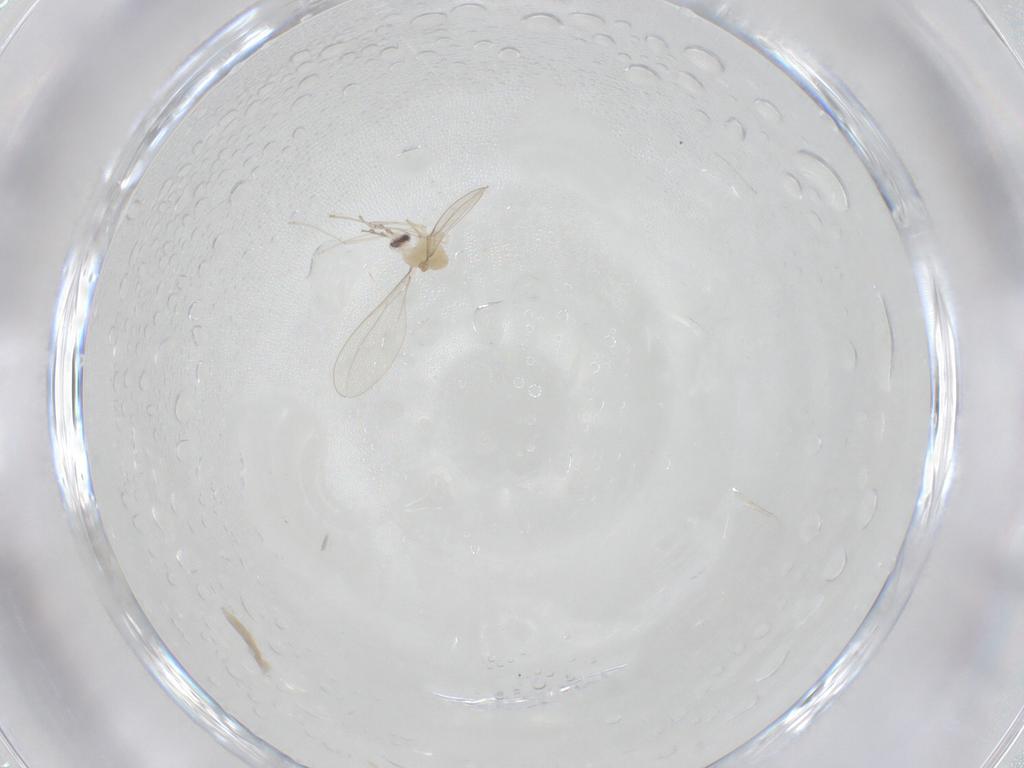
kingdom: Animalia
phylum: Arthropoda
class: Insecta
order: Diptera
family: Cecidomyiidae
